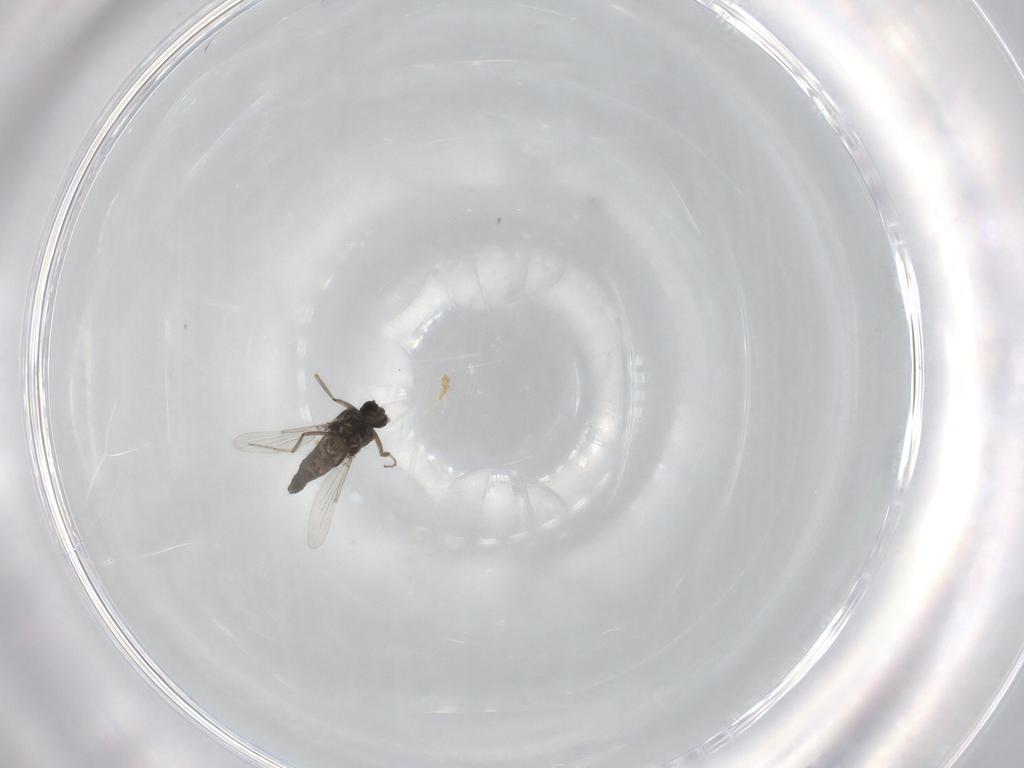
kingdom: Animalia
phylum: Arthropoda
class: Insecta
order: Diptera
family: Ceratopogonidae
